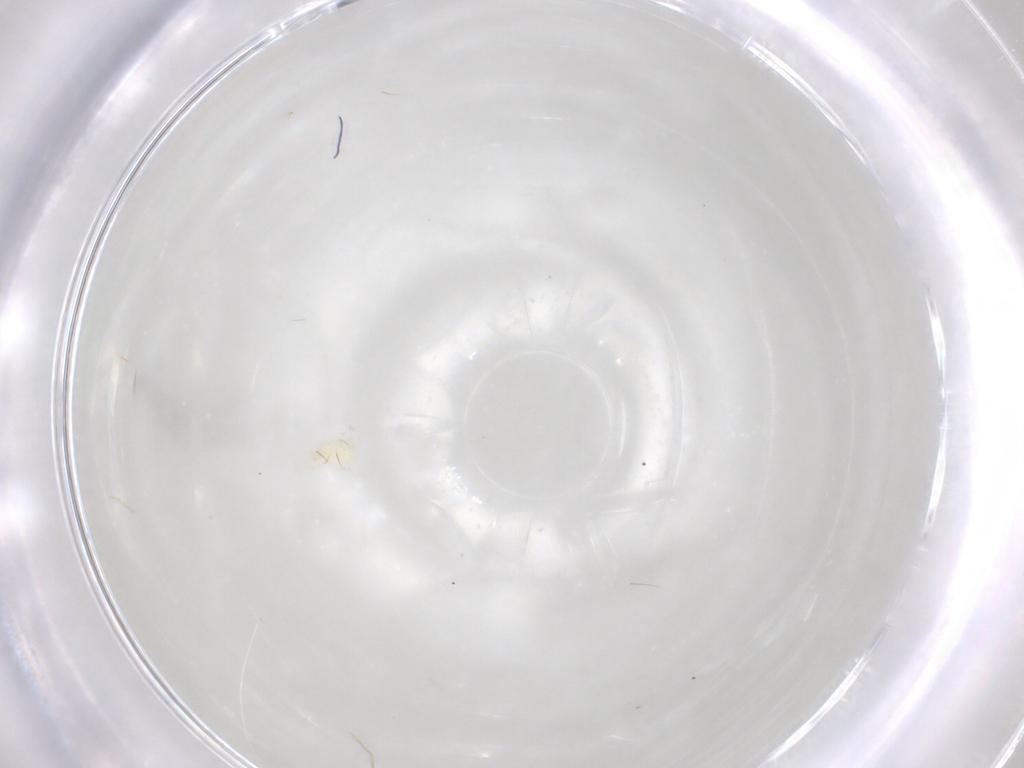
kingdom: Animalia
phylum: Arthropoda
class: Arachnida
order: Trombidiformes
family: Tetranychidae
